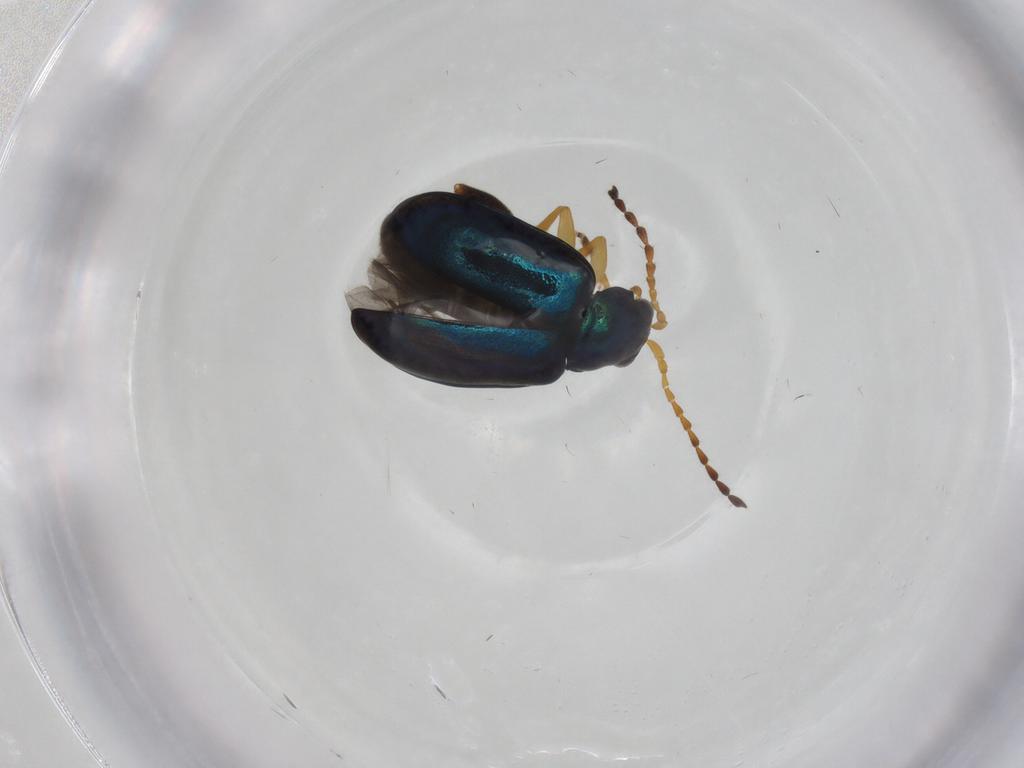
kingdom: Animalia
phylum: Arthropoda
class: Insecta
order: Coleoptera
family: Chrysomelidae
